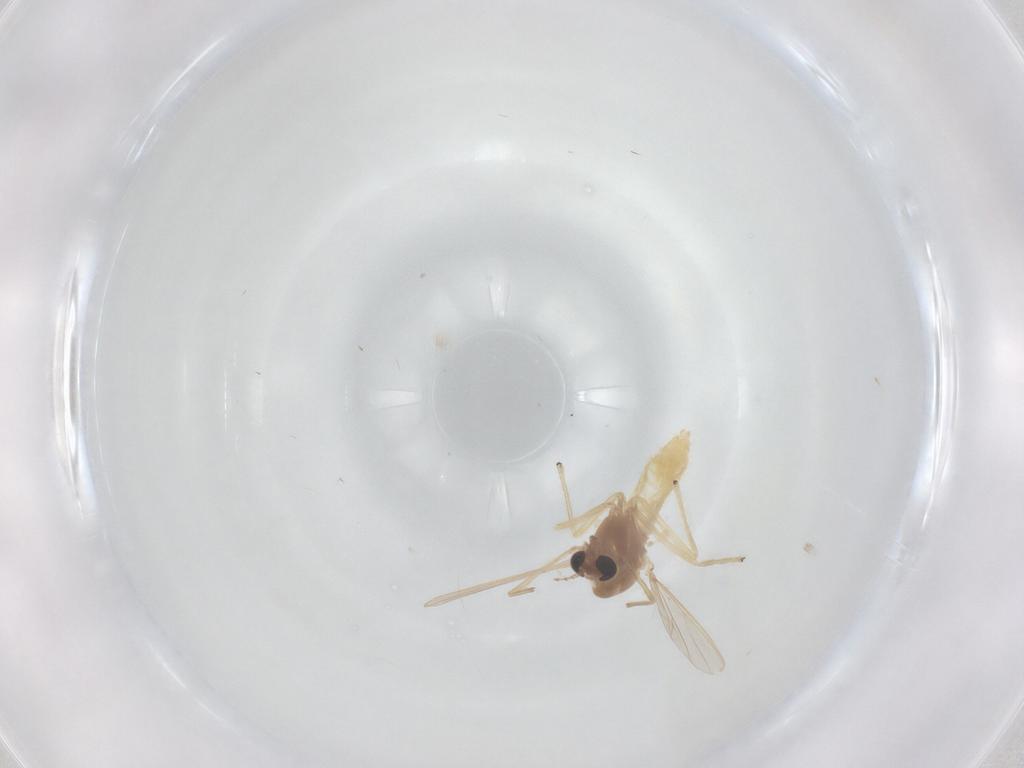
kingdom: Animalia
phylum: Arthropoda
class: Insecta
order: Diptera
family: Chironomidae
